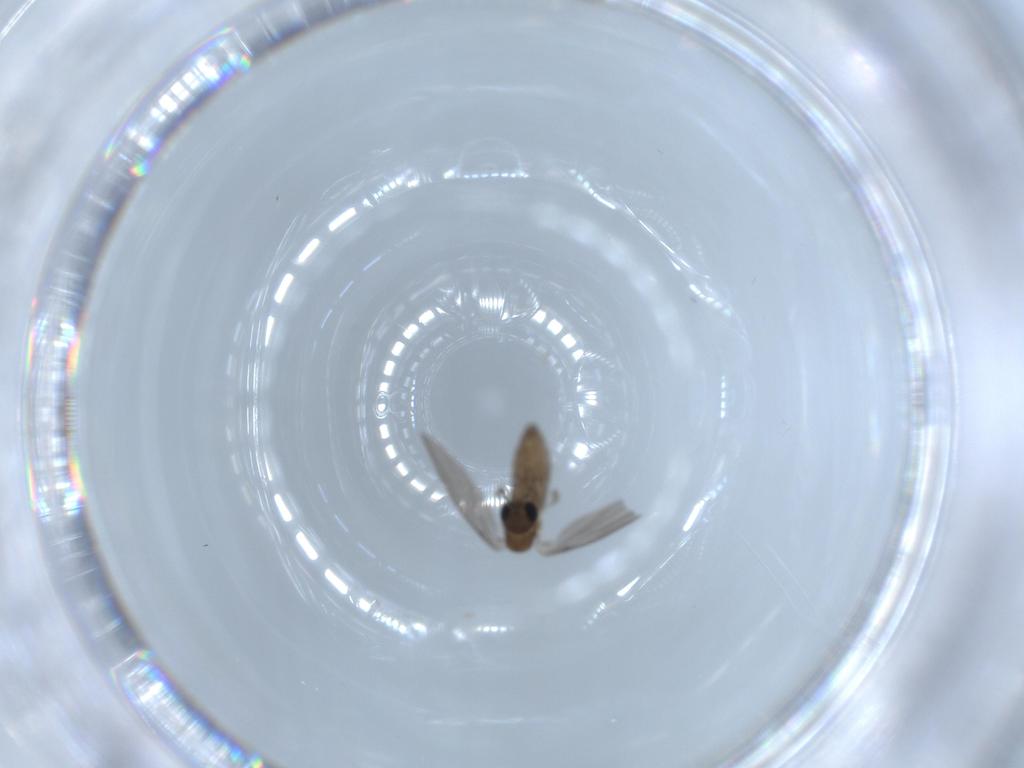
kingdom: Animalia
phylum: Arthropoda
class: Insecta
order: Diptera
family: Psychodidae
